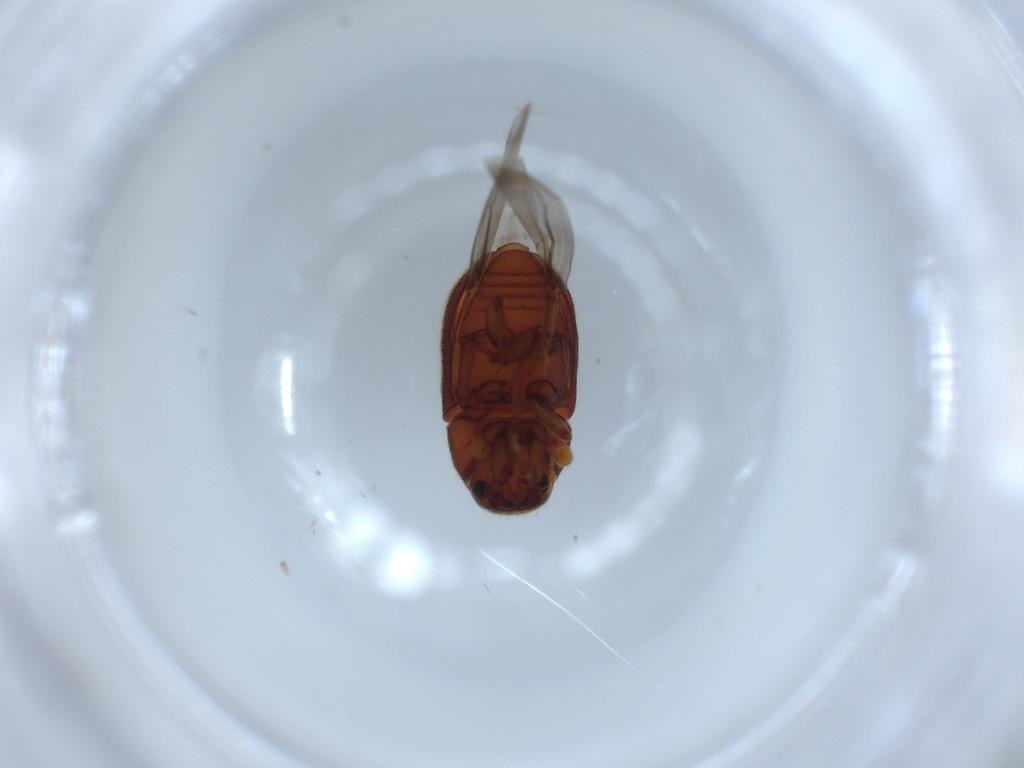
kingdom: Animalia
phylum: Arthropoda
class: Insecta
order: Coleoptera
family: Curculionidae
